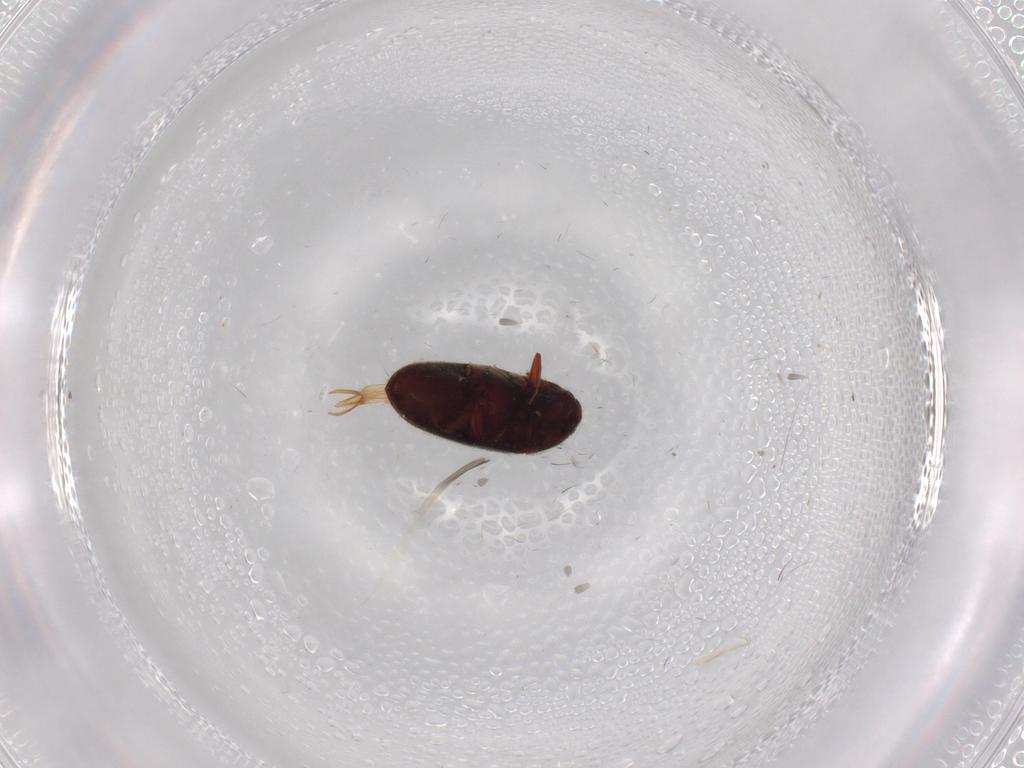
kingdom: Animalia
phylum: Arthropoda
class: Insecta
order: Coleoptera
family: Throscidae
